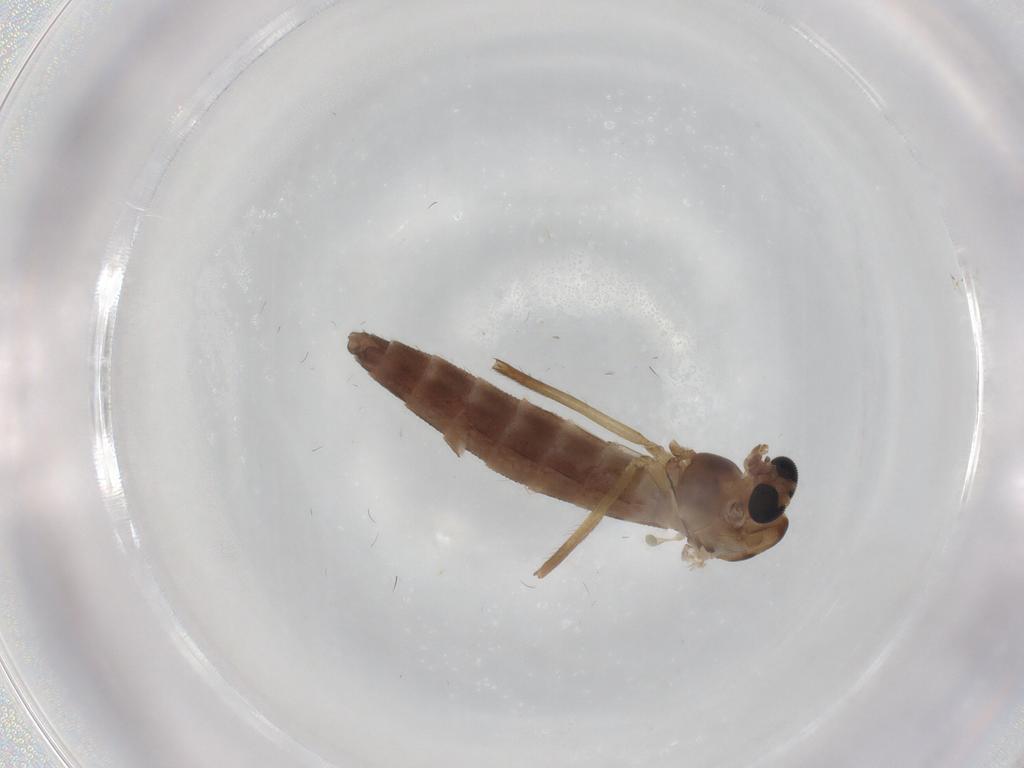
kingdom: Animalia
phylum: Arthropoda
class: Insecta
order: Diptera
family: Chironomidae
